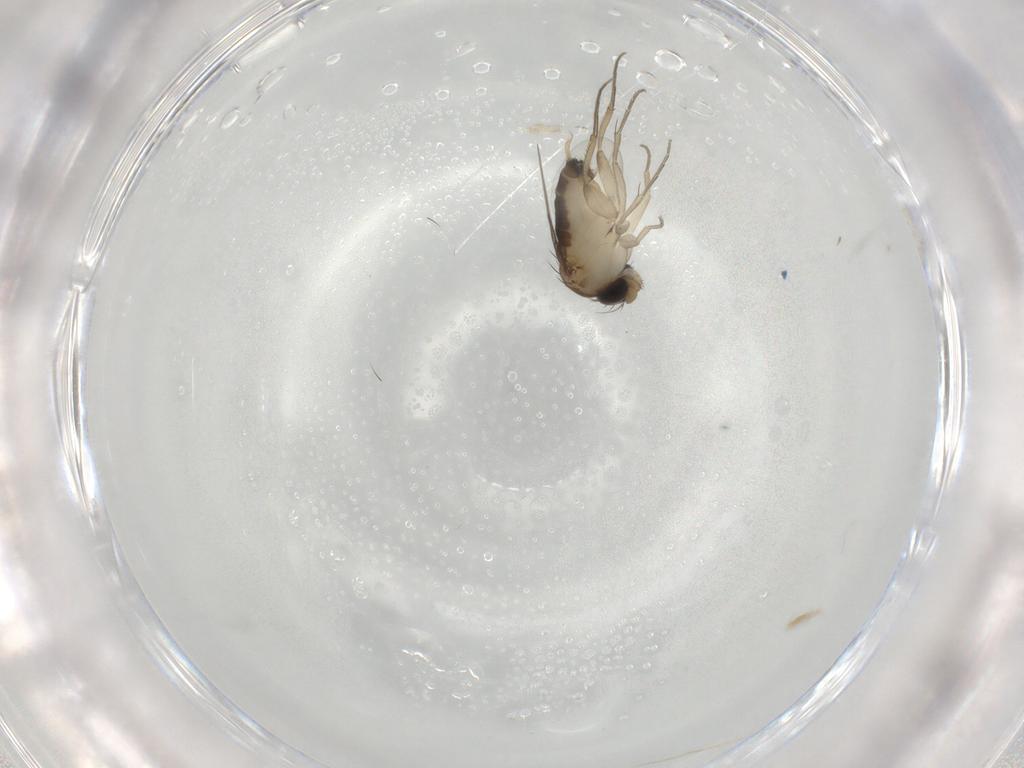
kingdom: Animalia
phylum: Arthropoda
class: Insecta
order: Diptera
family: Phoridae
